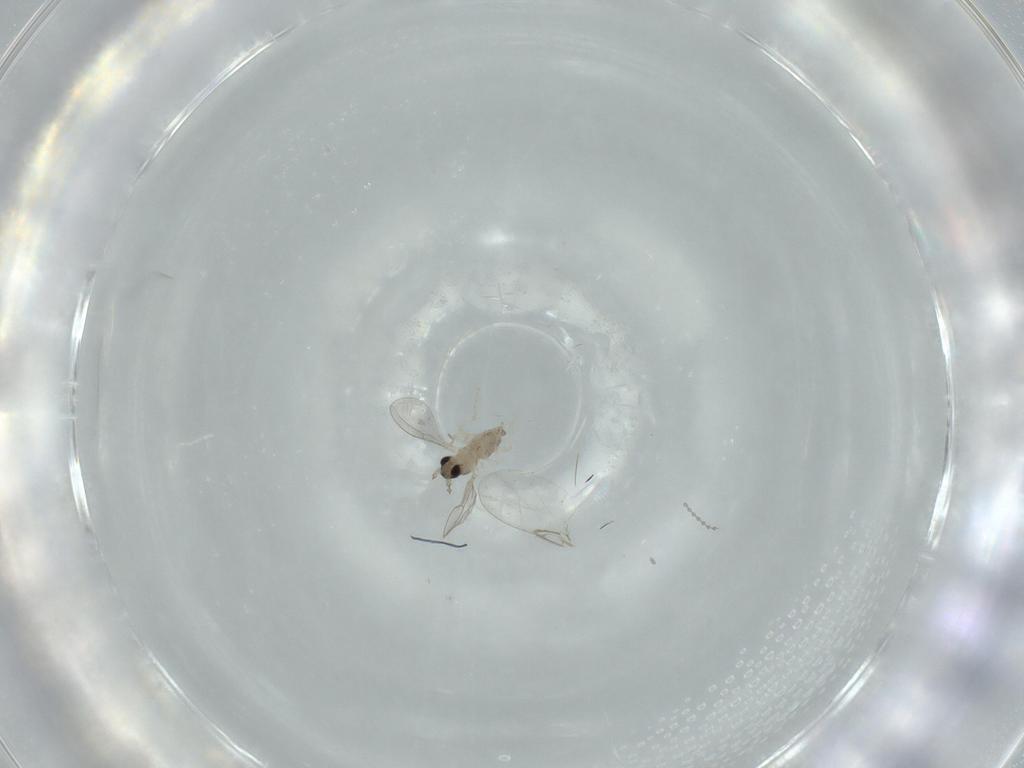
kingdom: Animalia
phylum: Arthropoda
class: Insecta
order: Diptera
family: Cecidomyiidae
